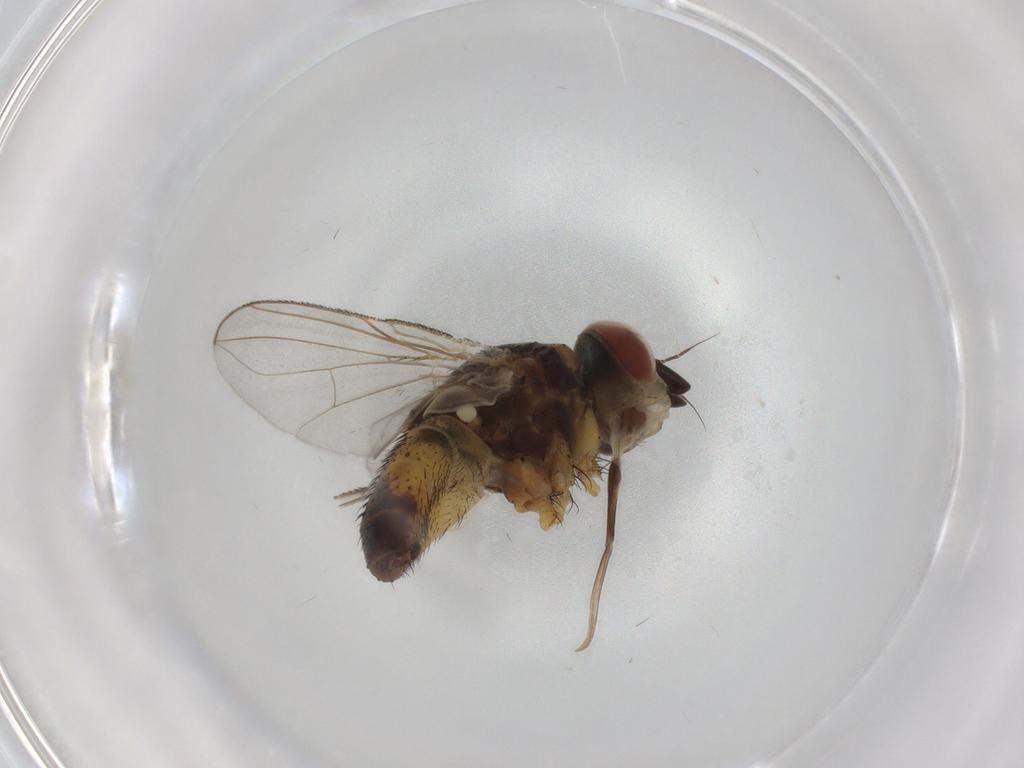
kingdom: Animalia
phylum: Arthropoda
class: Insecta
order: Diptera
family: Tachinidae
